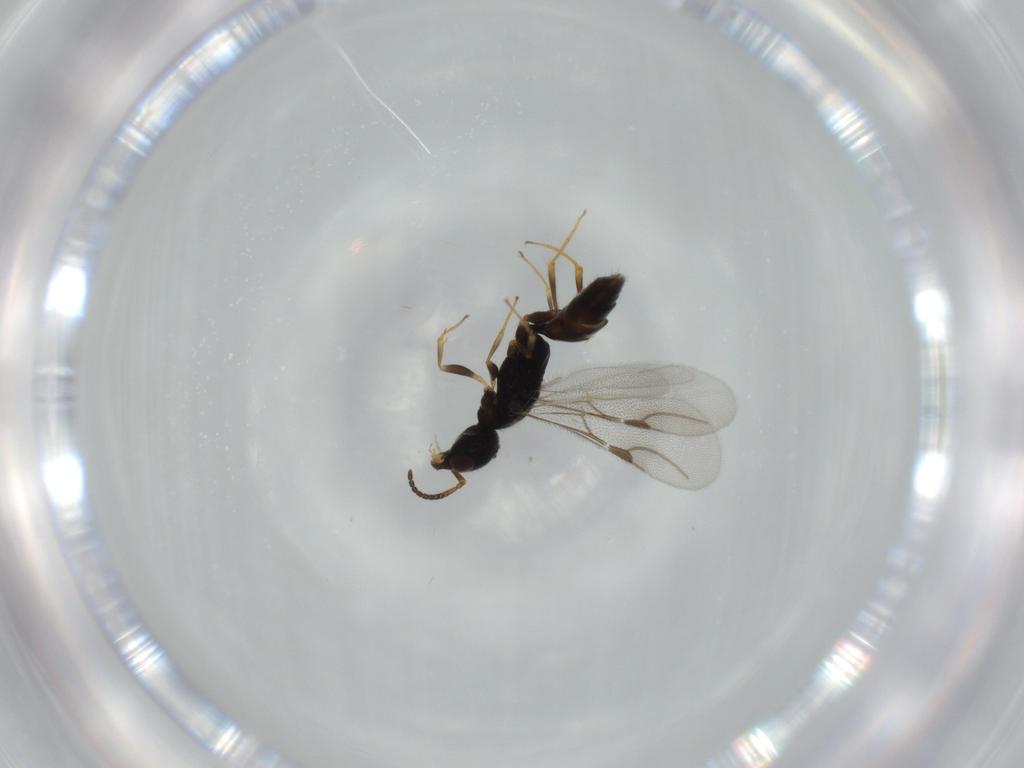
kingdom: Animalia
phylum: Arthropoda
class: Insecta
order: Hymenoptera
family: Bethylidae
